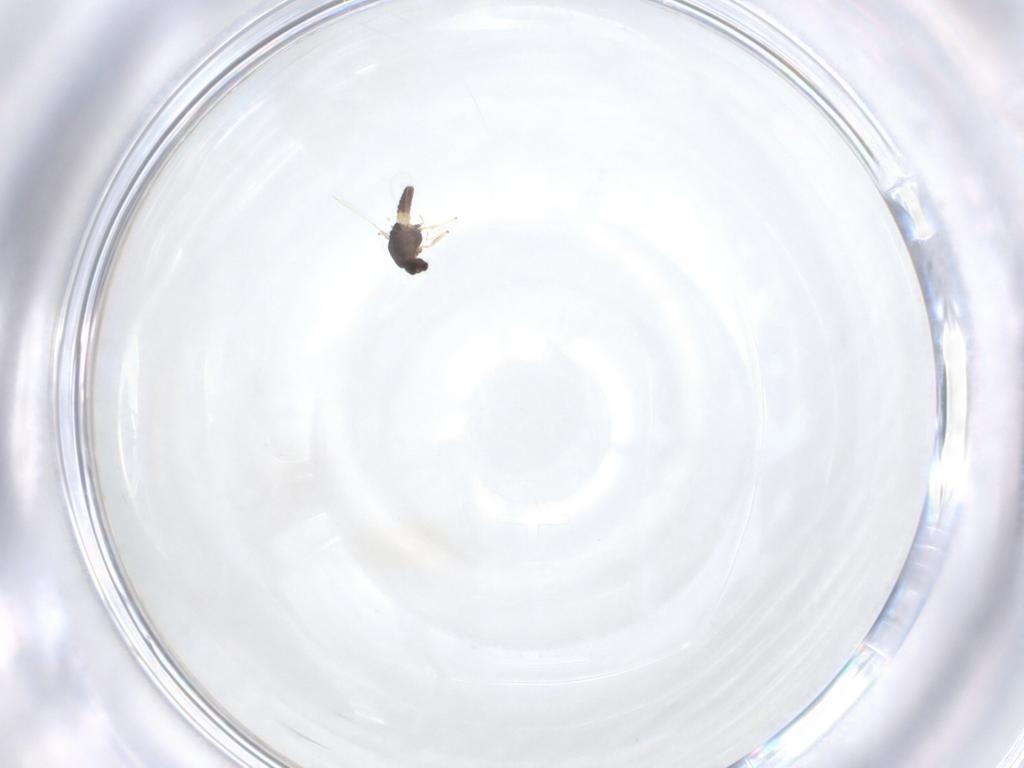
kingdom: Animalia
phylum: Arthropoda
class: Insecta
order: Diptera
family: Chironomidae
